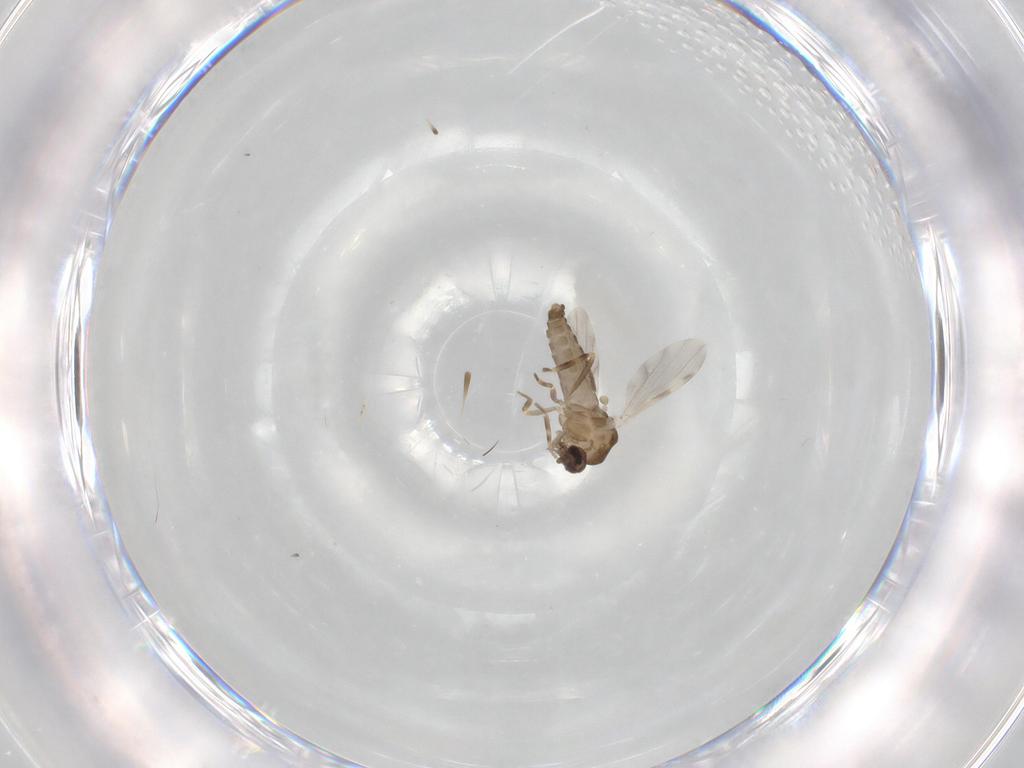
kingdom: Animalia
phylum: Arthropoda
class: Insecta
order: Diptera
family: Ceratopogonidae
